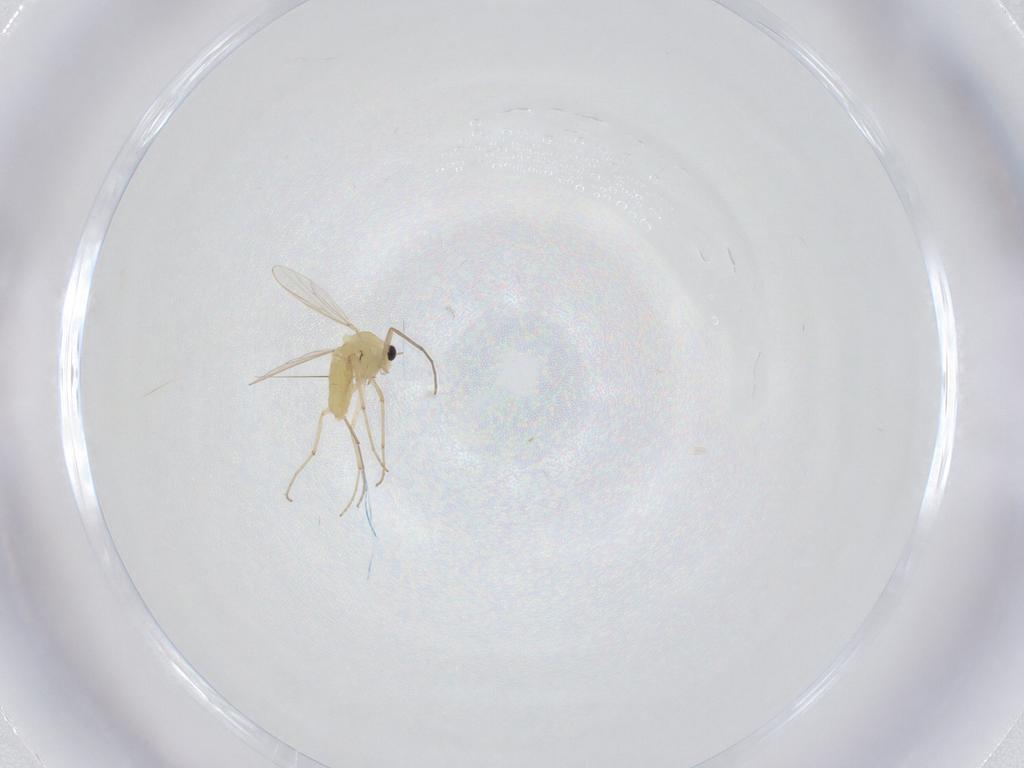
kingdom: Animalia
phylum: Arthropoda
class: Insecta
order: Diptera
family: Chironomidae
